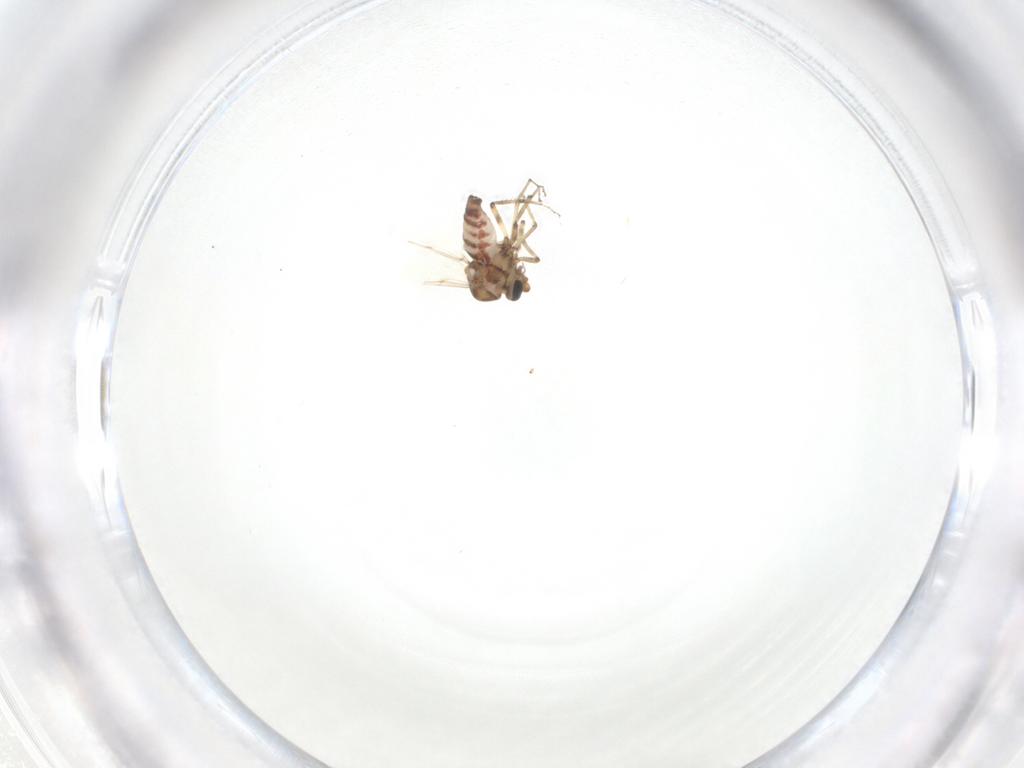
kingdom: Animalia
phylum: Arthropoda
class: Insecta
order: Diptera
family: Ceratopogonidae
